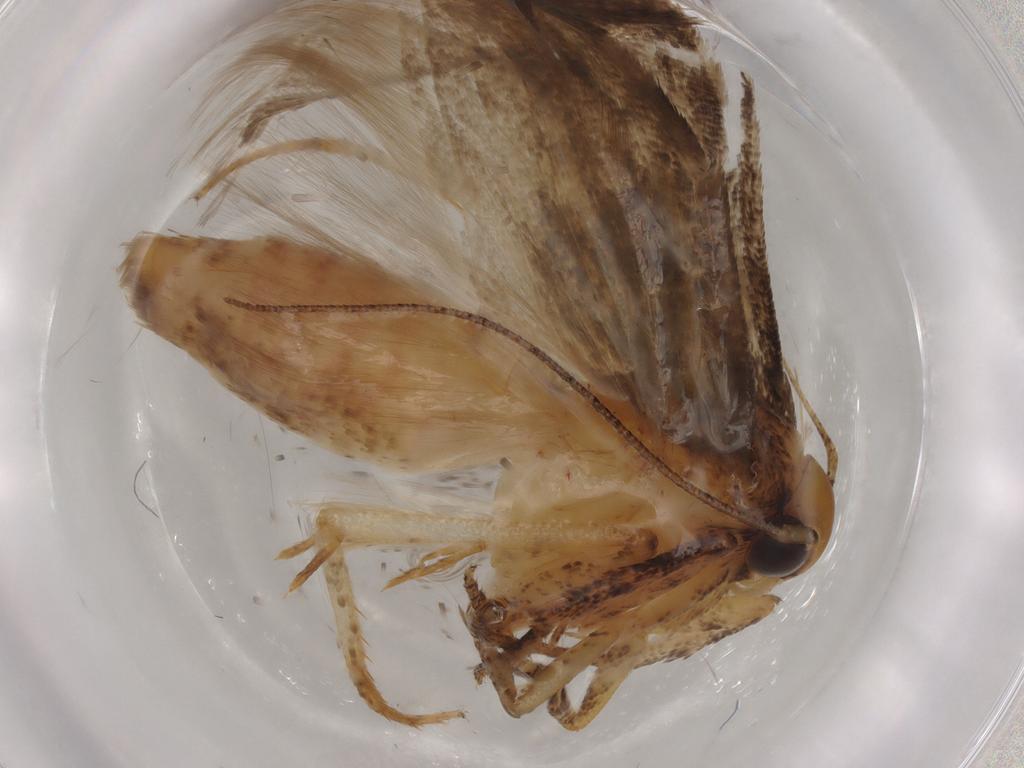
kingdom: Animalia
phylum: Arthropoda
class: Insecta
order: Lepidoptera
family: Gelechiidae
